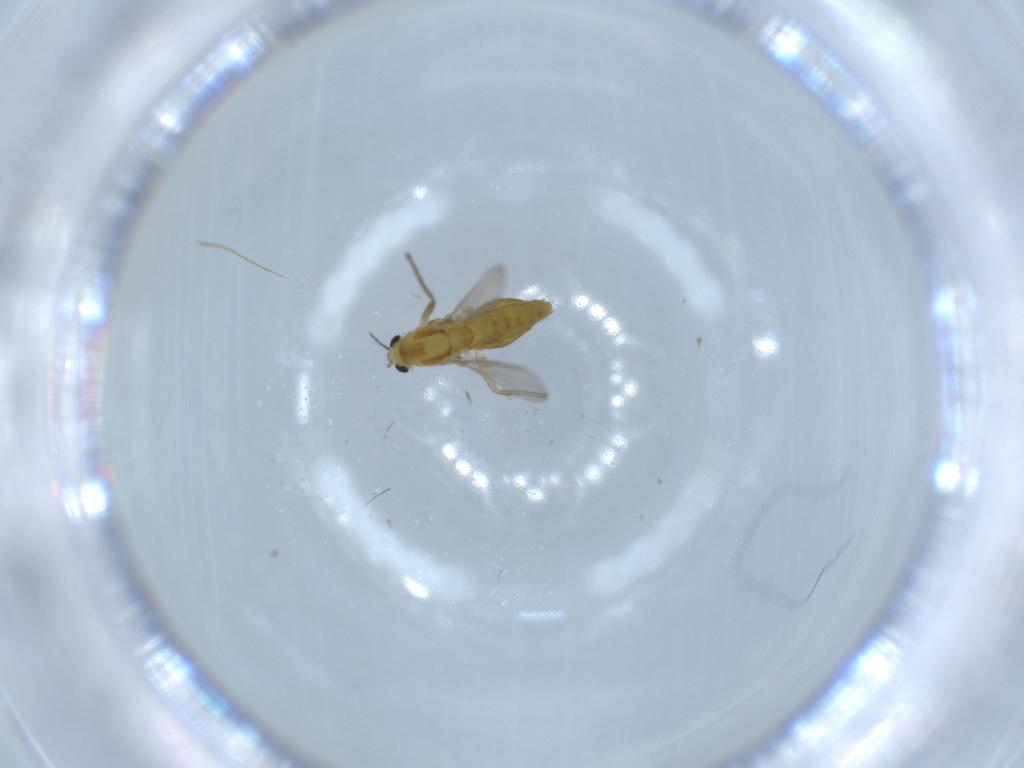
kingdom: Animalia
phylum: Arthropoda
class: Insecta
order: Diptera
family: Chironomidae
